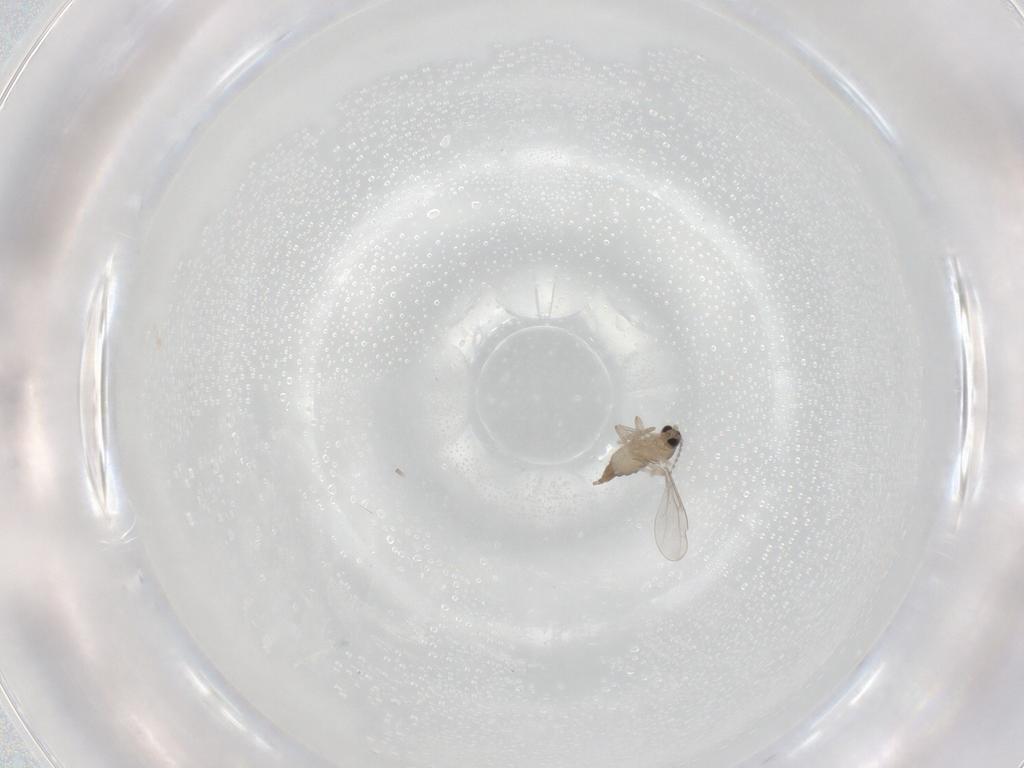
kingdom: Animalia
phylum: Arthropoda
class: Insecta
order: Diptera
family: Cecidomyiidae
